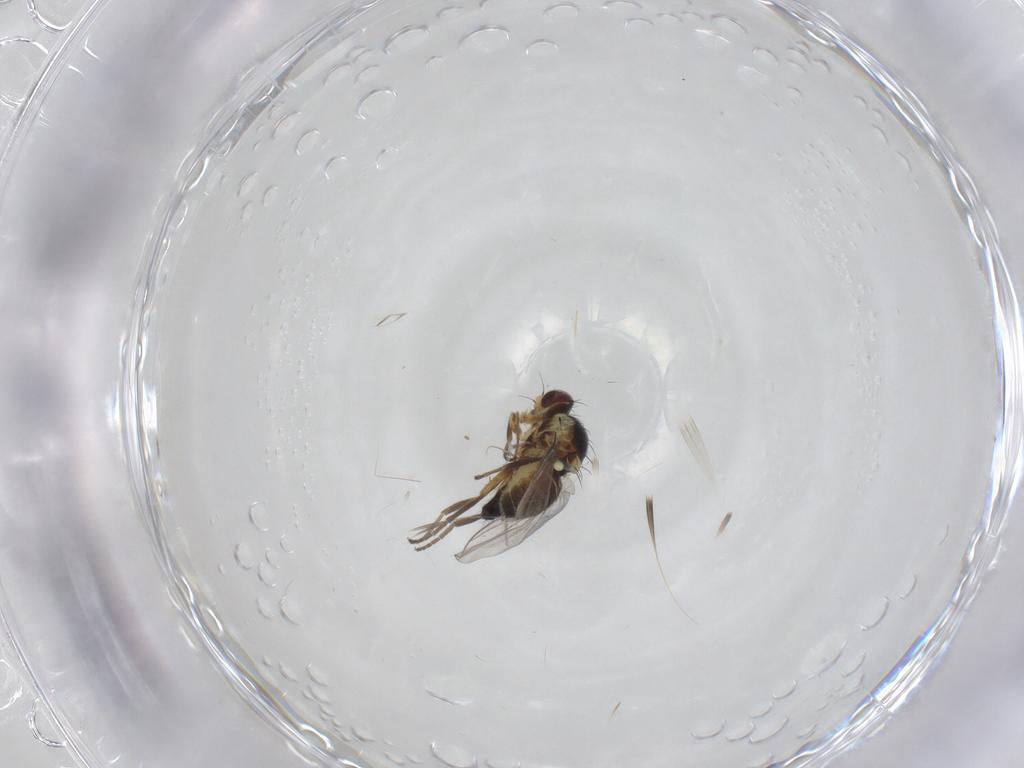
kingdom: Animalia
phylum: Arthropoda
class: Insecta
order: Diptera
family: Agromyzidae
